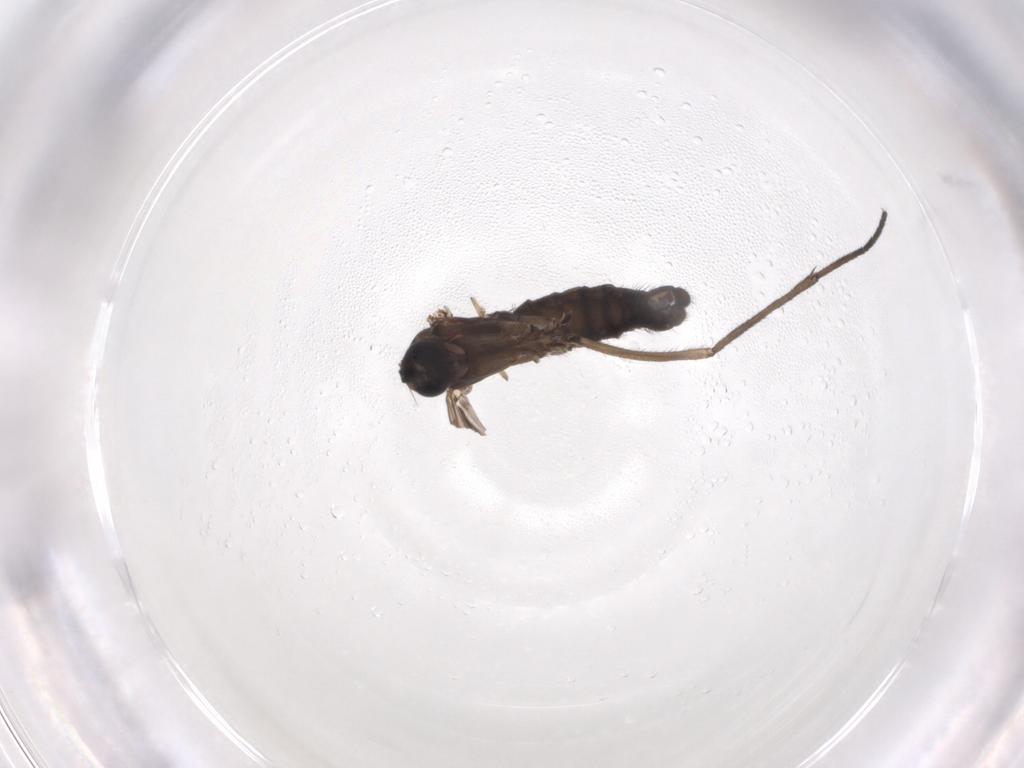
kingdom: Animalia
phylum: Arthropoda
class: Insecta
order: Diptera
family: Sciaridae
